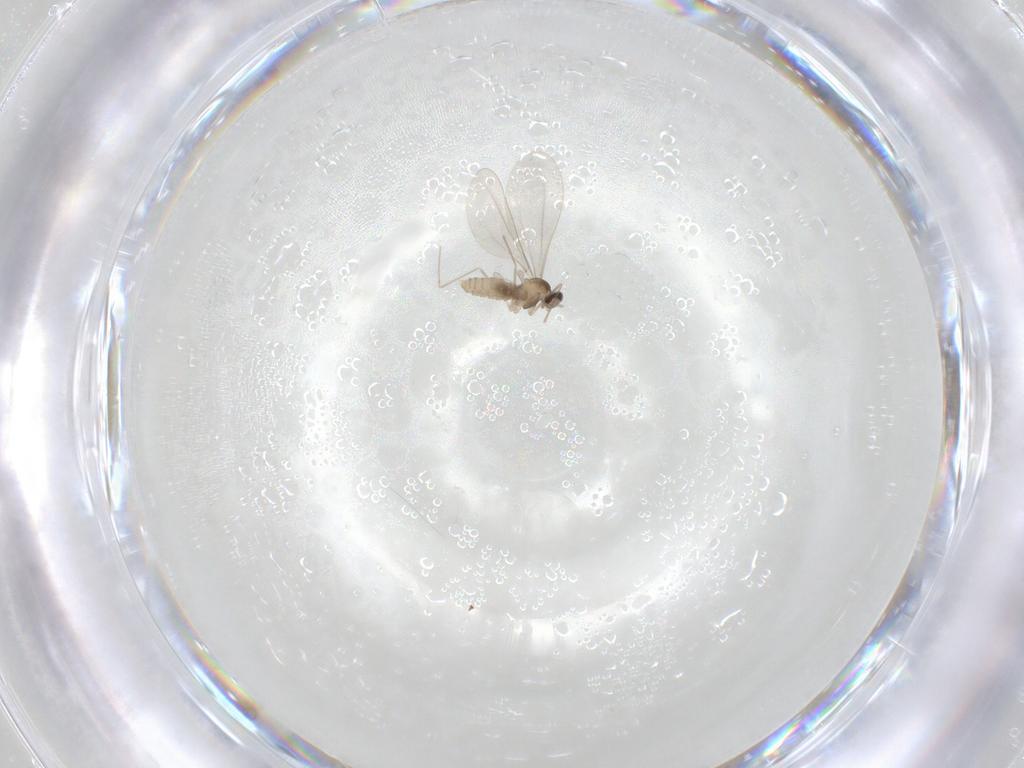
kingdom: Animalia
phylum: Arthropoda
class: Insecta
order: Diptera
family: Cecidomyiidae
